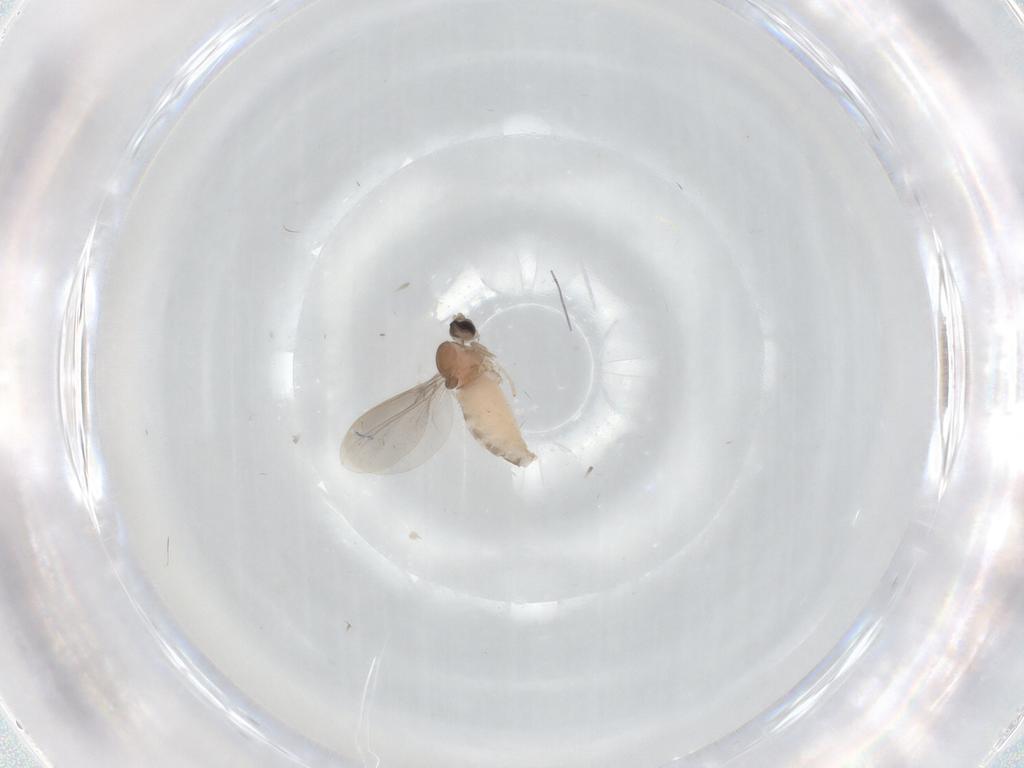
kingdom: Animalia
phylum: Arthropoda
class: Insecta
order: Diptera
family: Cecidomyiidae
